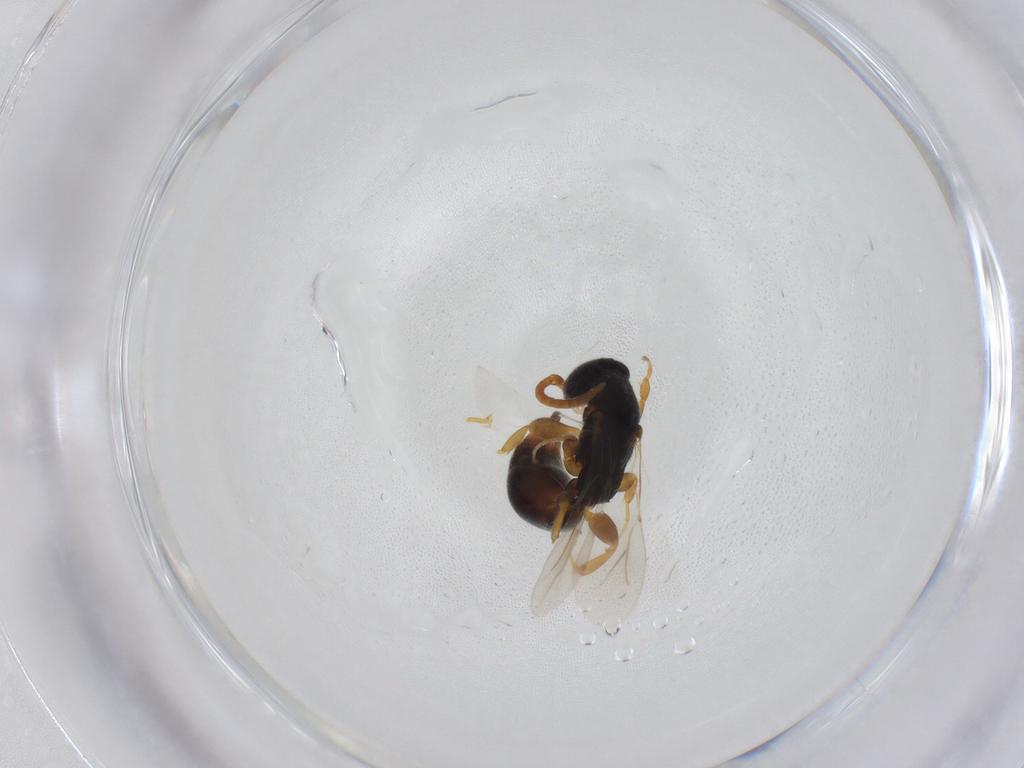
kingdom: Animalia
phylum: Arthropoda
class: Insecta
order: Hymenoptera
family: Bethylidae
